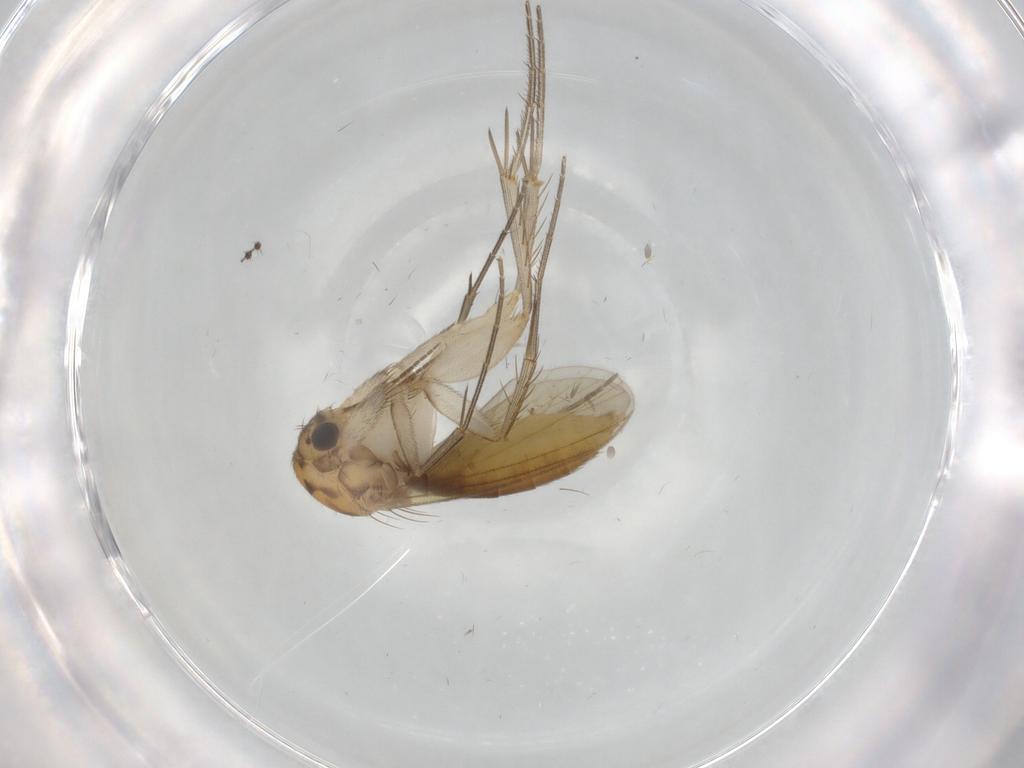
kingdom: Animalia
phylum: Arthropoda
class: Insecta
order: Diptera
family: Mycetophilidae
